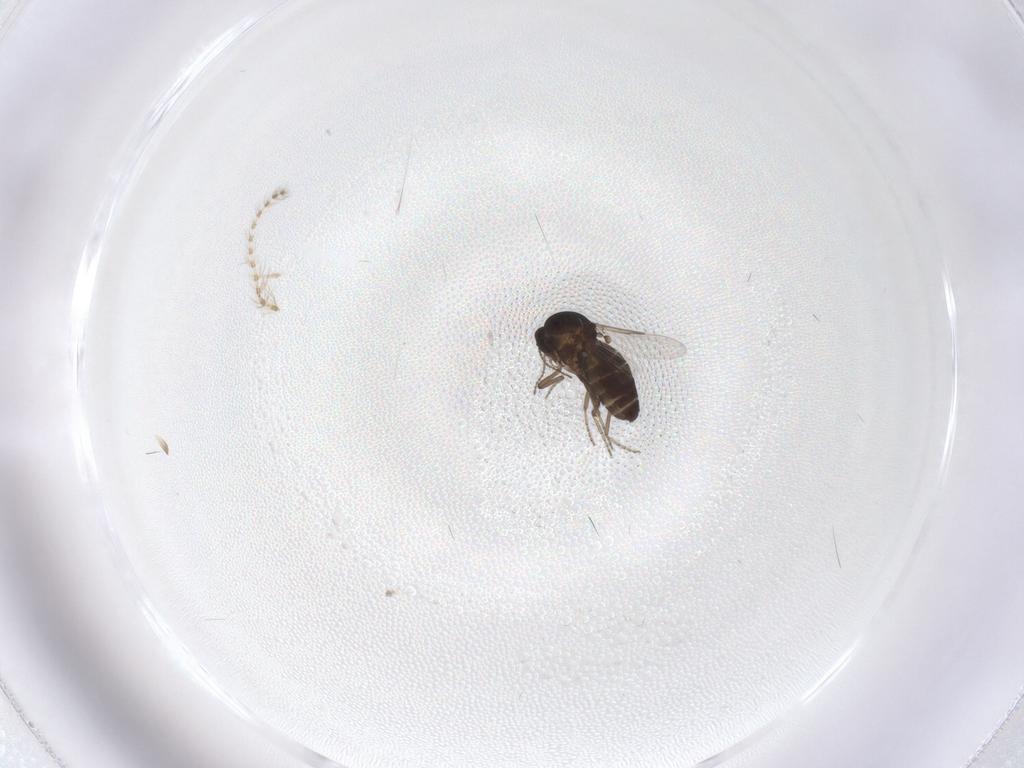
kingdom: Animalia
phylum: Arthropoda
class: Insecta
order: Diptera
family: Ceratopogonidae
